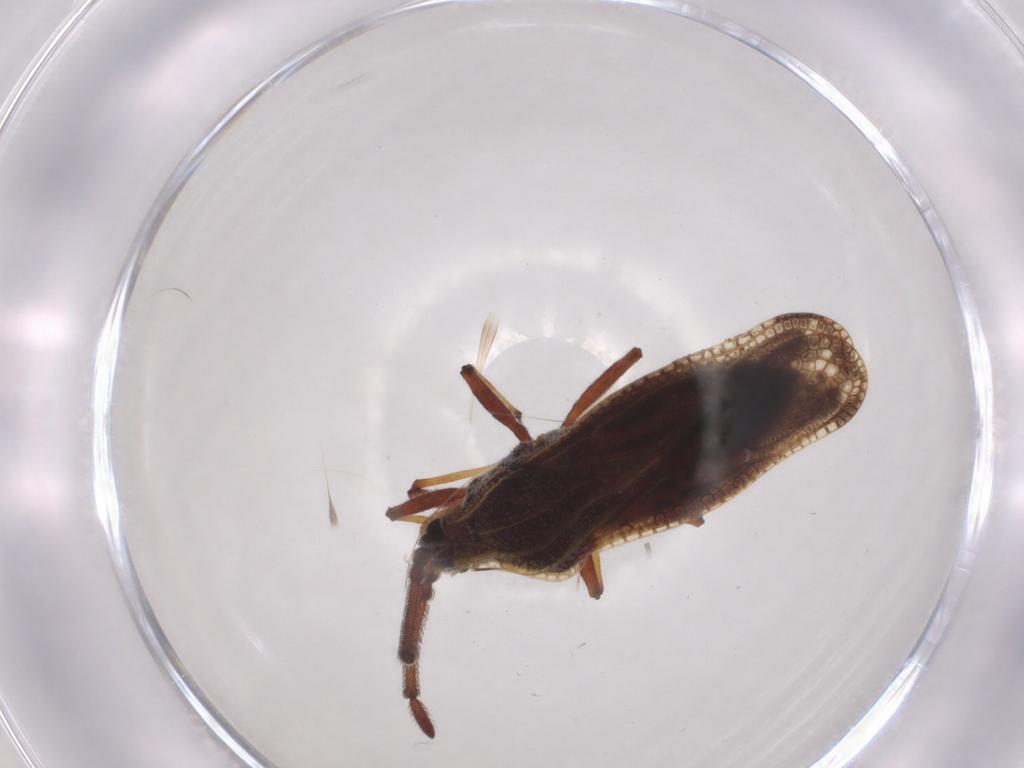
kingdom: Animalia
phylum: Arthropoda
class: Insecta
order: Hemiptera
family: Tingidae
